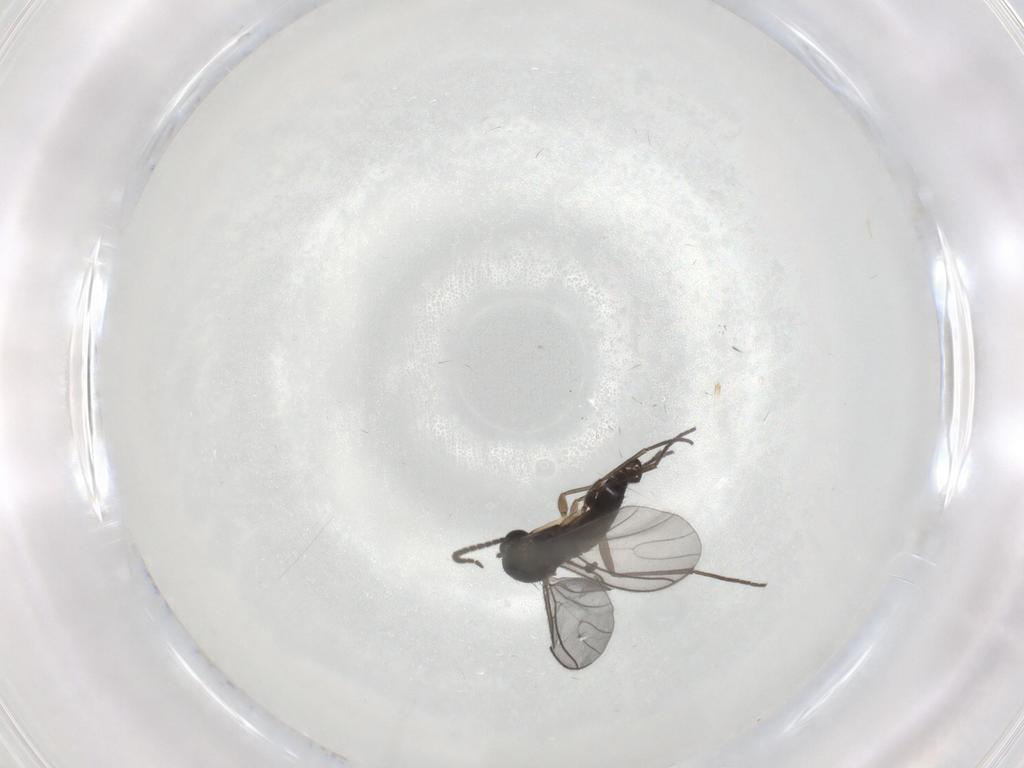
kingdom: Animalia
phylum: Arthropoda
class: Insecta
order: Diptera
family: Sciaridae
